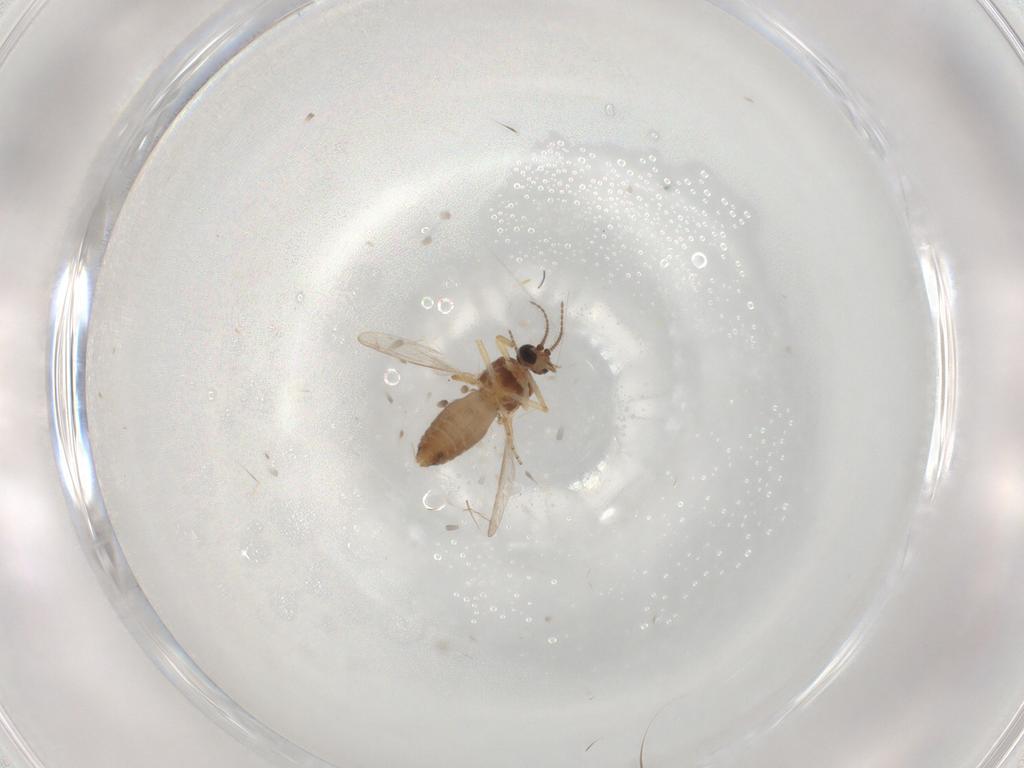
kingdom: Animalia
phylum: Arthropoda
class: Insecta
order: Diptera
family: Ceratopogonidae
